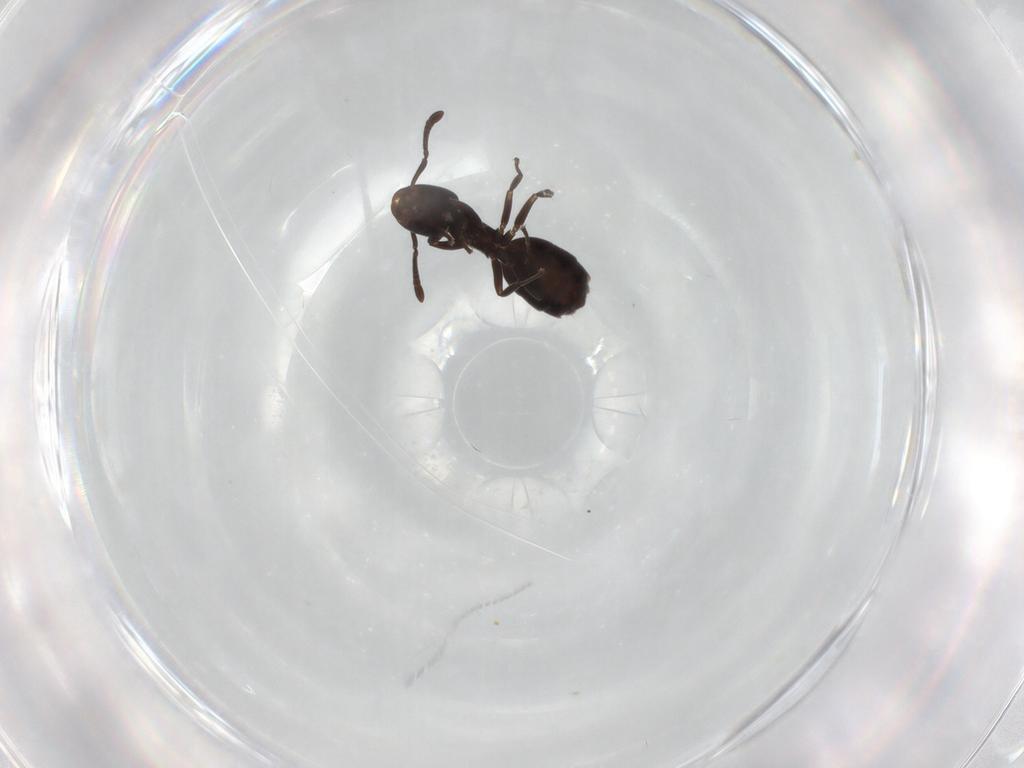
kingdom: Animalia
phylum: Arthropoda
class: Insecta
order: Hymenoptera
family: Formicidae
